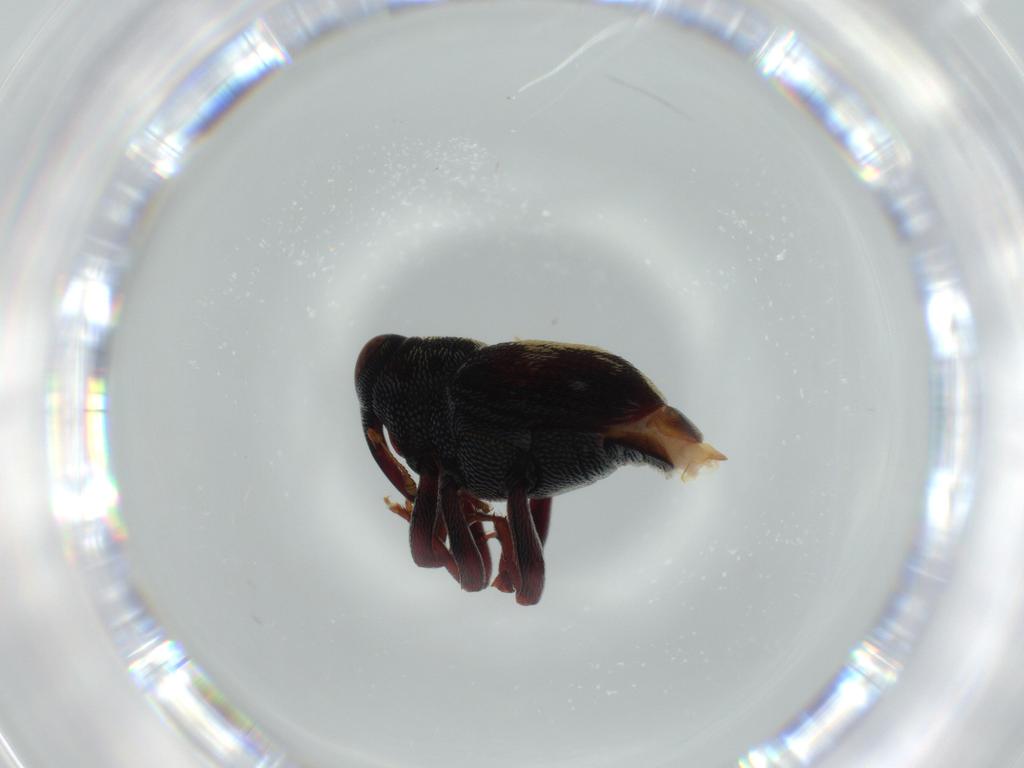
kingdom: Animalia
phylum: Arthropoda
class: Insecta
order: Coleoptera
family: Curculionidae
